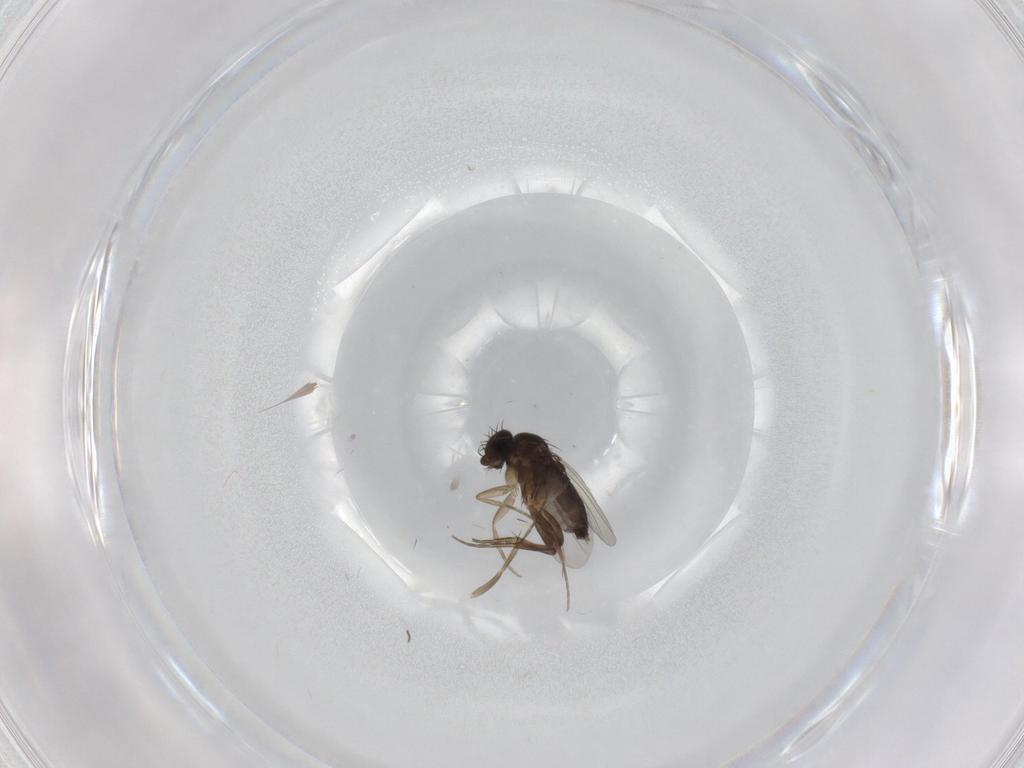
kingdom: Animalia
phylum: Arthropoda
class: Insecta
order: Diptera
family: Phoridae
